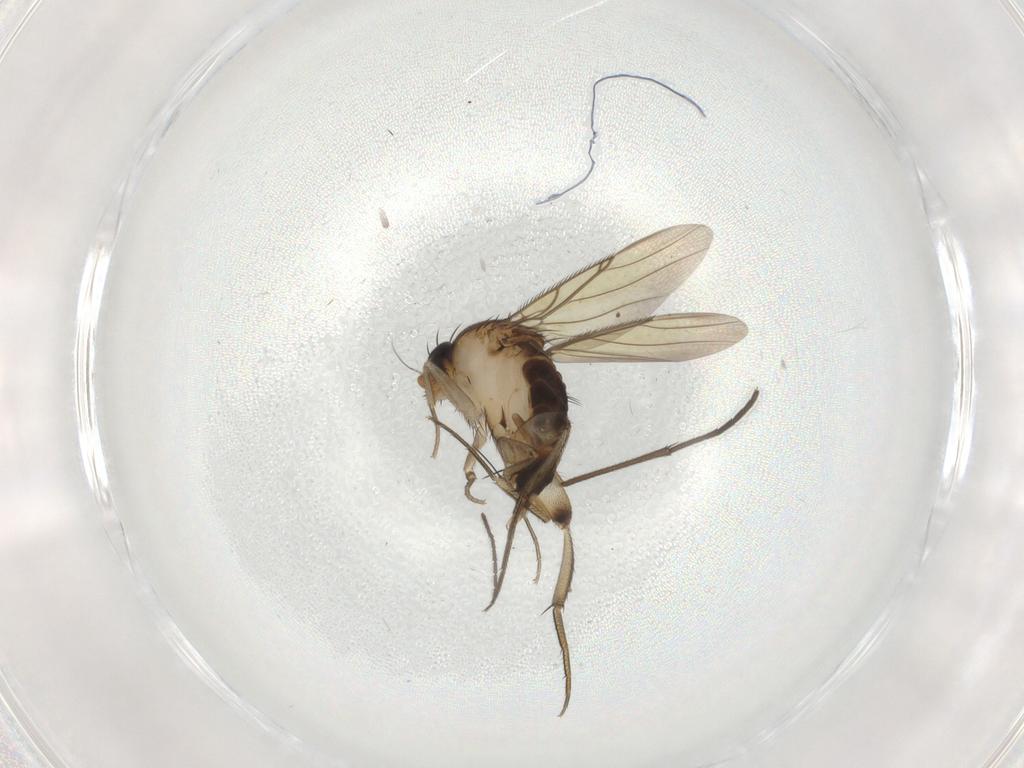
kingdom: Animalia
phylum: Arthropoda
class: Insecta
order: Diptera
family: Phoridae
